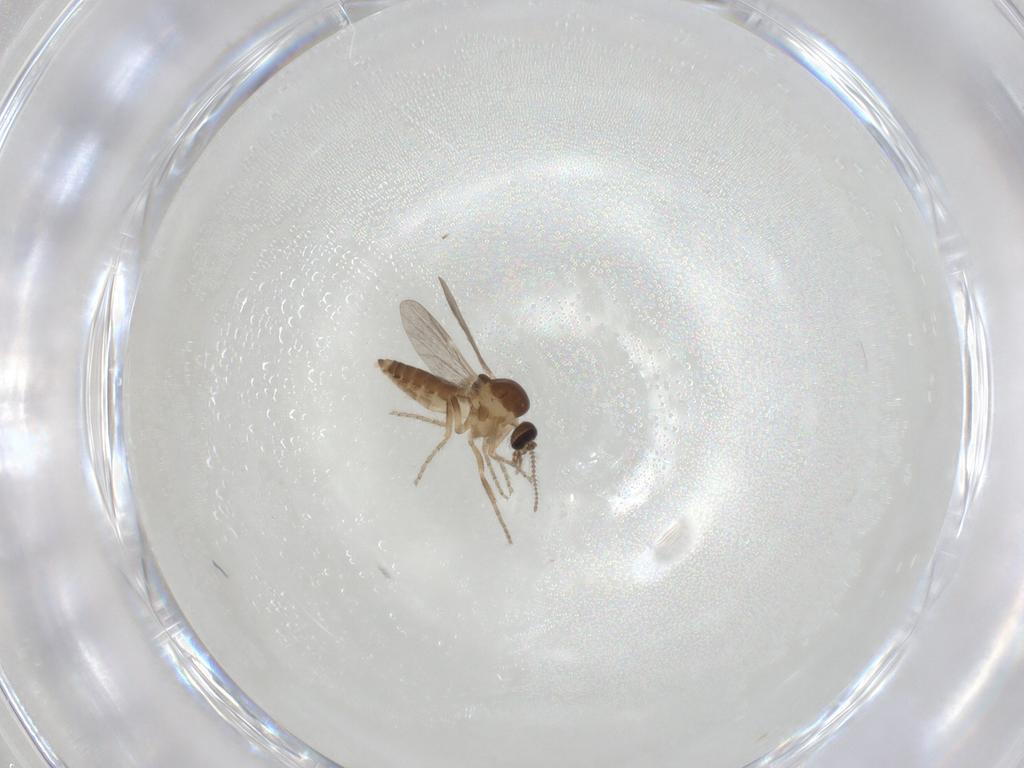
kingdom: Animalia
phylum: Arthropoda
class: Insecta
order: Diptera
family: Ceratopogonidae
